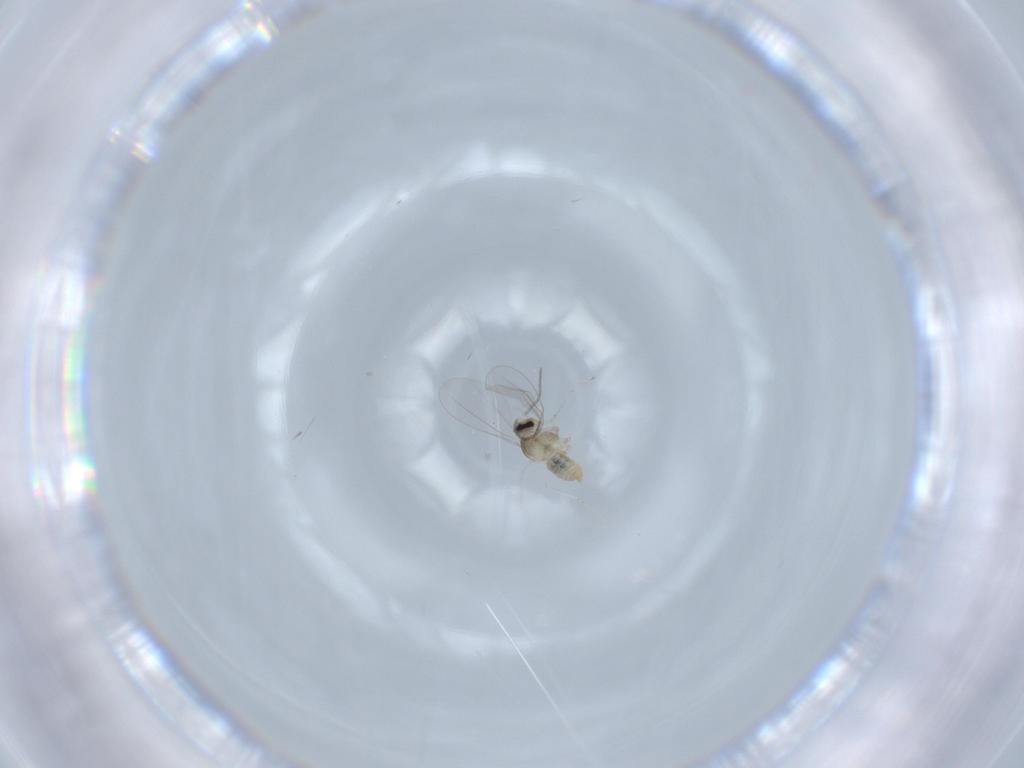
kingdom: Animalia
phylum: Arthropoda
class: Insecta
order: Diptera
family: Cecidomyiidae
